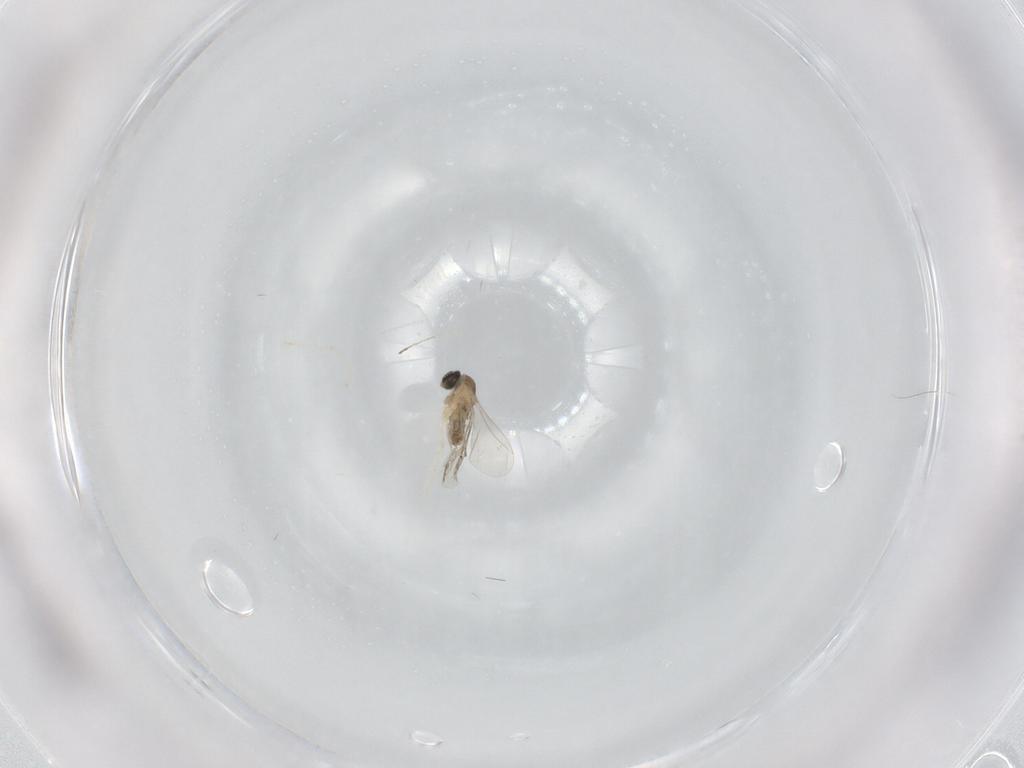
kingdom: Animalia
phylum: Arthropoda
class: Insecta
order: Diptera
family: Cecidomyiidae
